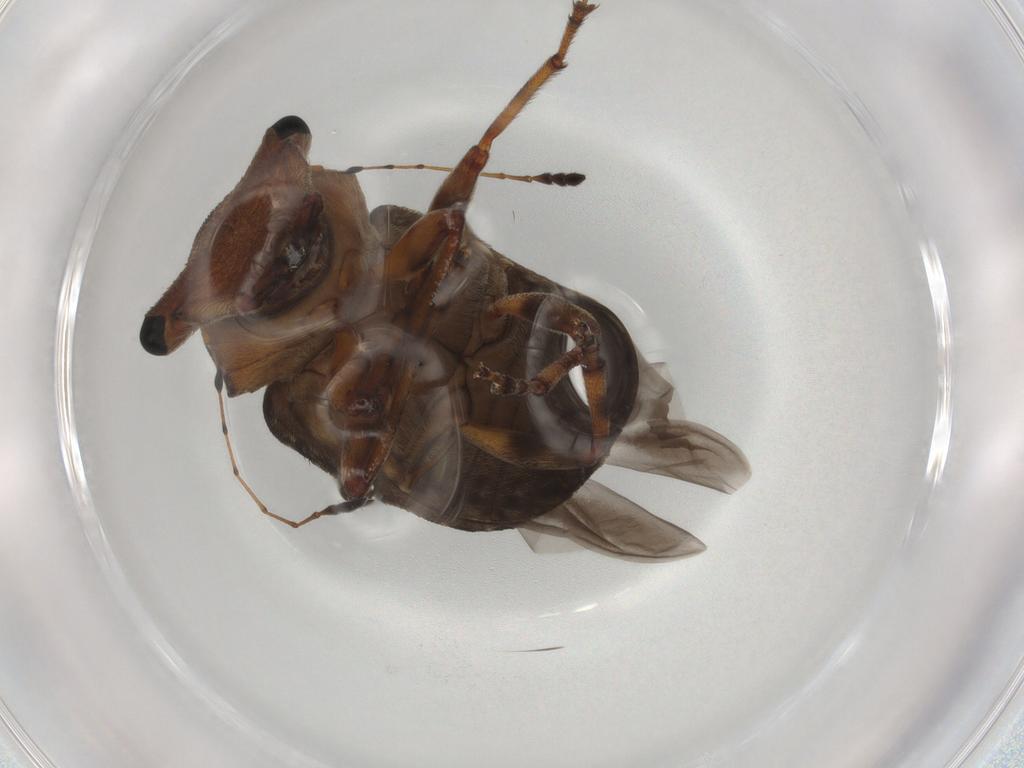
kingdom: Animalia
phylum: Arthropoda
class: Insecta
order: Coleoptera
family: Anthribidae
